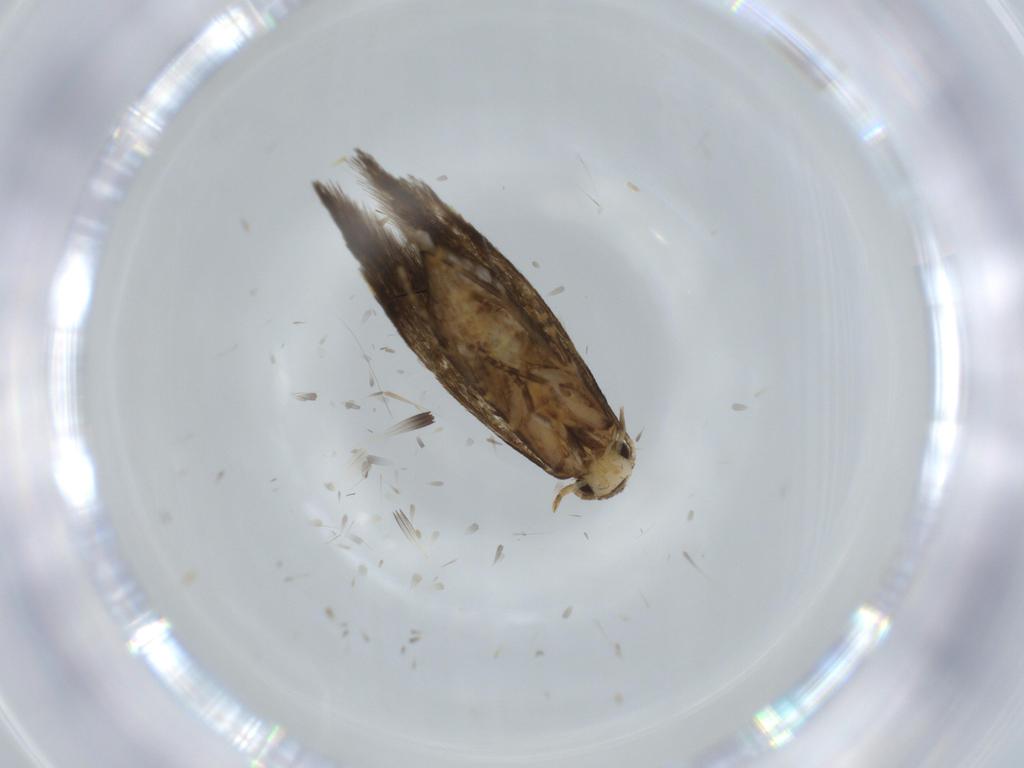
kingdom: Animalia
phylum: Arthropoda
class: Insecta
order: Lepidoptera
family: Tineidae
